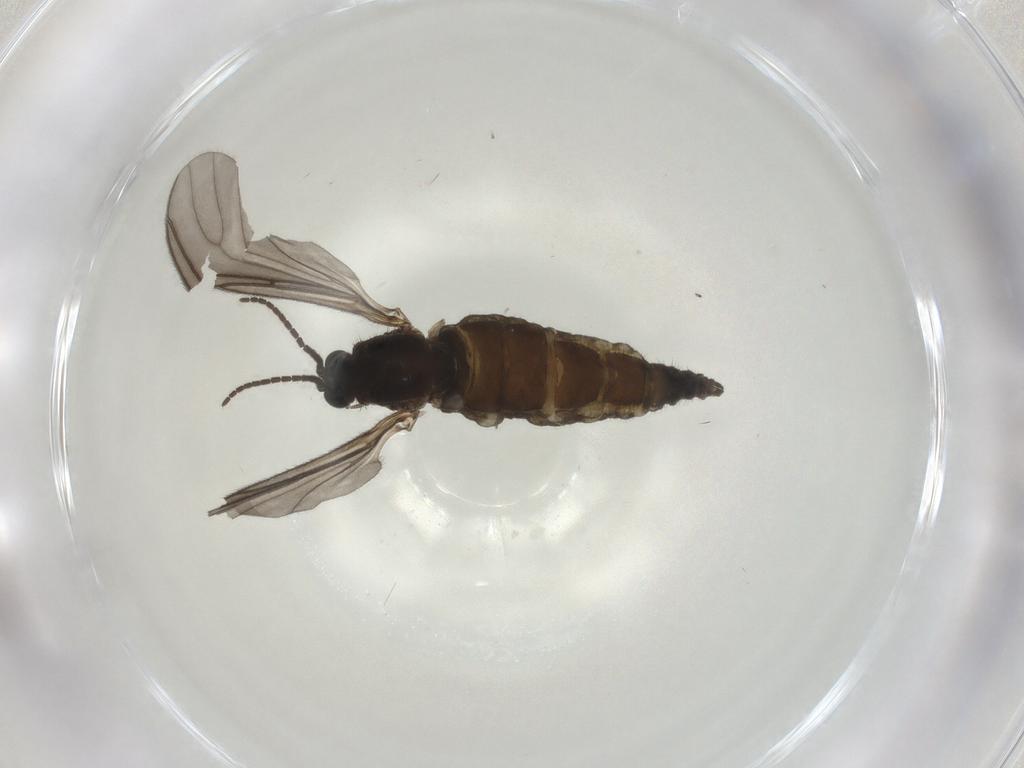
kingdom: Animalia
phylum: Arthropoda
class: Insecta
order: Diptera
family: Sciaridae
